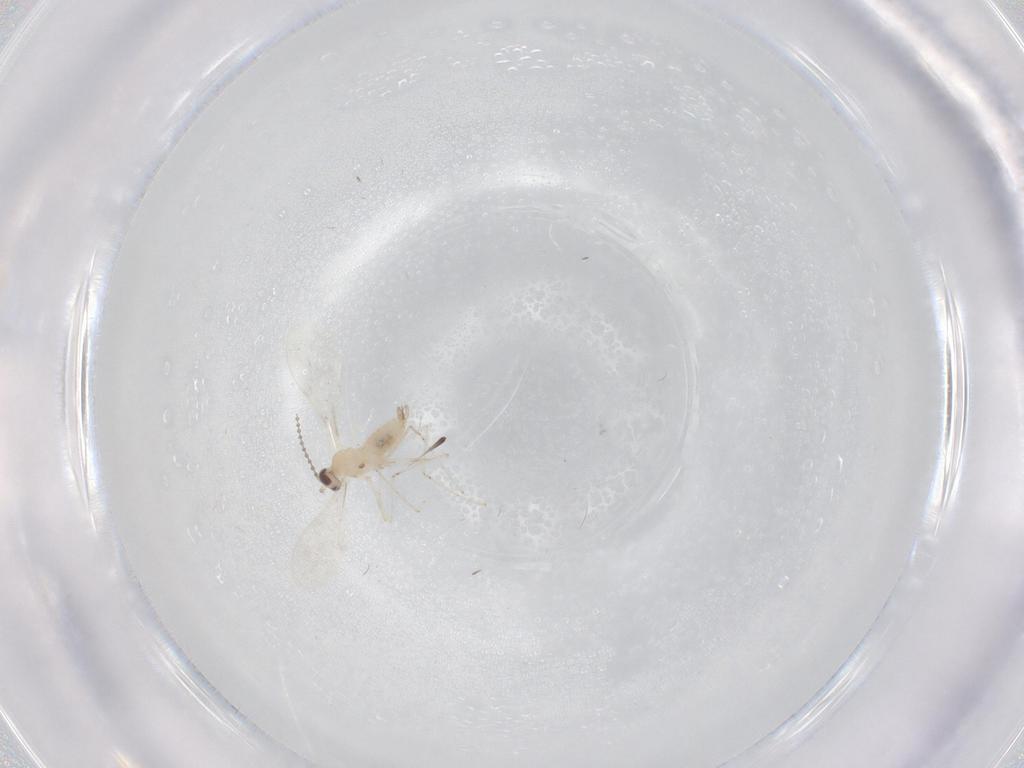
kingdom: Animalia
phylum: Arthropoda
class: Insecta
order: Diptera
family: Cecidomyiidae
